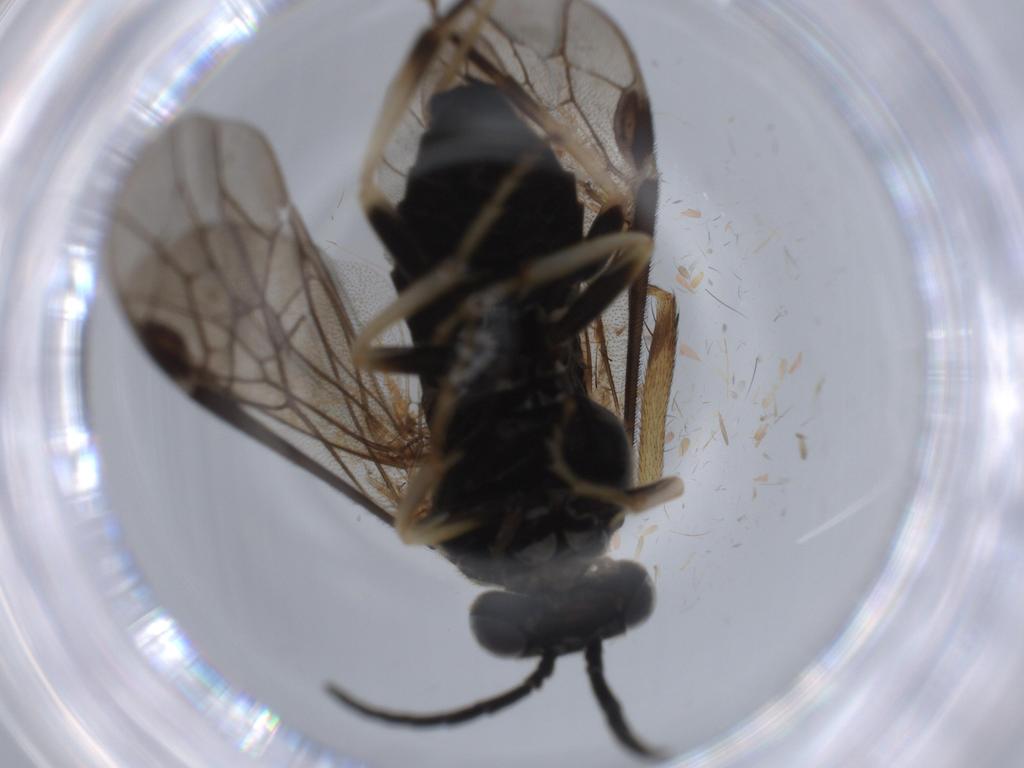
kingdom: Animalia
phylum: Arthropoda
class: Insecta
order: Hymenoptera
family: Tenthredinidae
